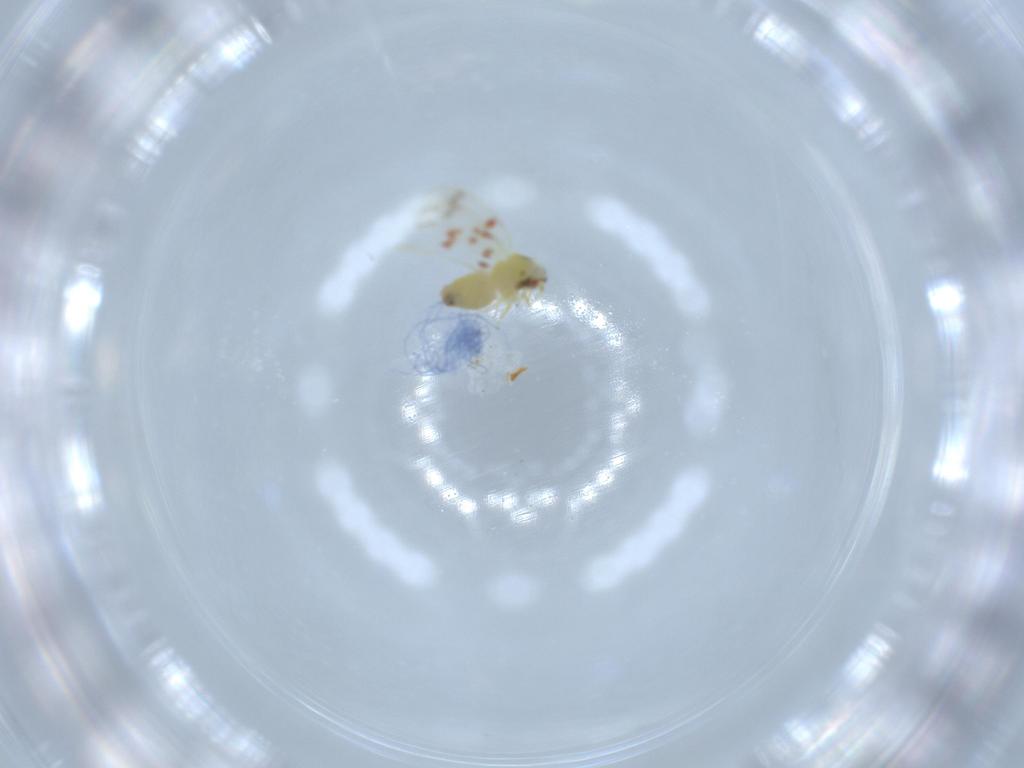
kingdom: Animalia
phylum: Arthropoda
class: Insecta
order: Hemiptera
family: Aleyrodidae
